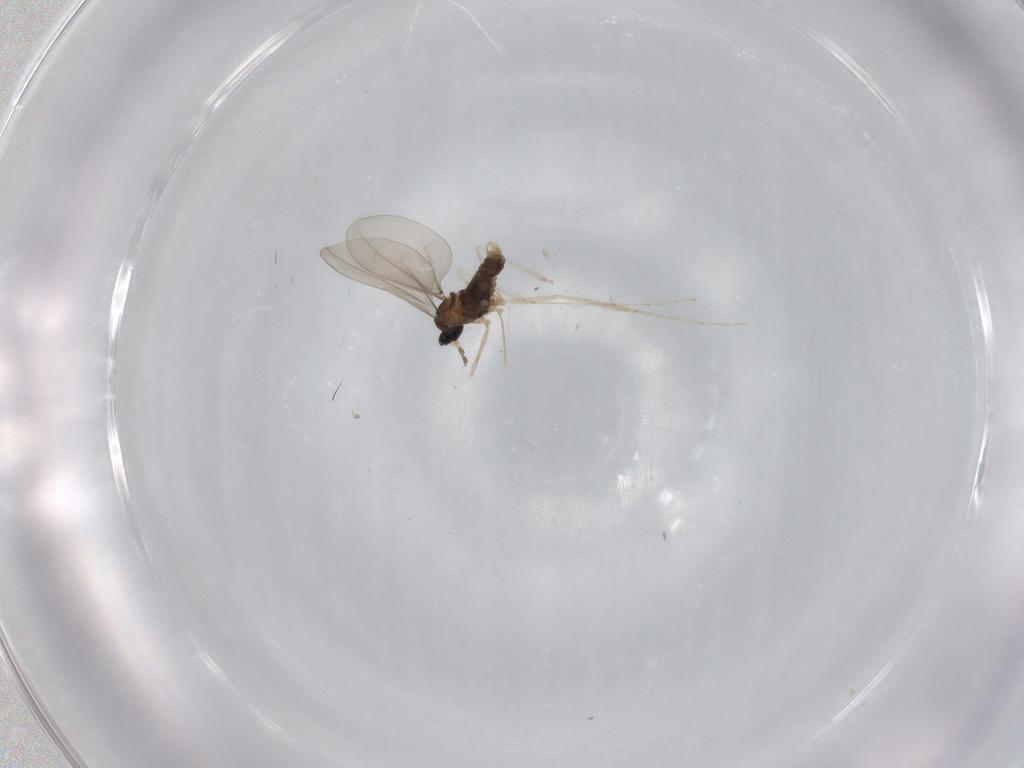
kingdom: Animalia
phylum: Arthropoda
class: Insecta
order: Diptera
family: Cecidomyiidae
